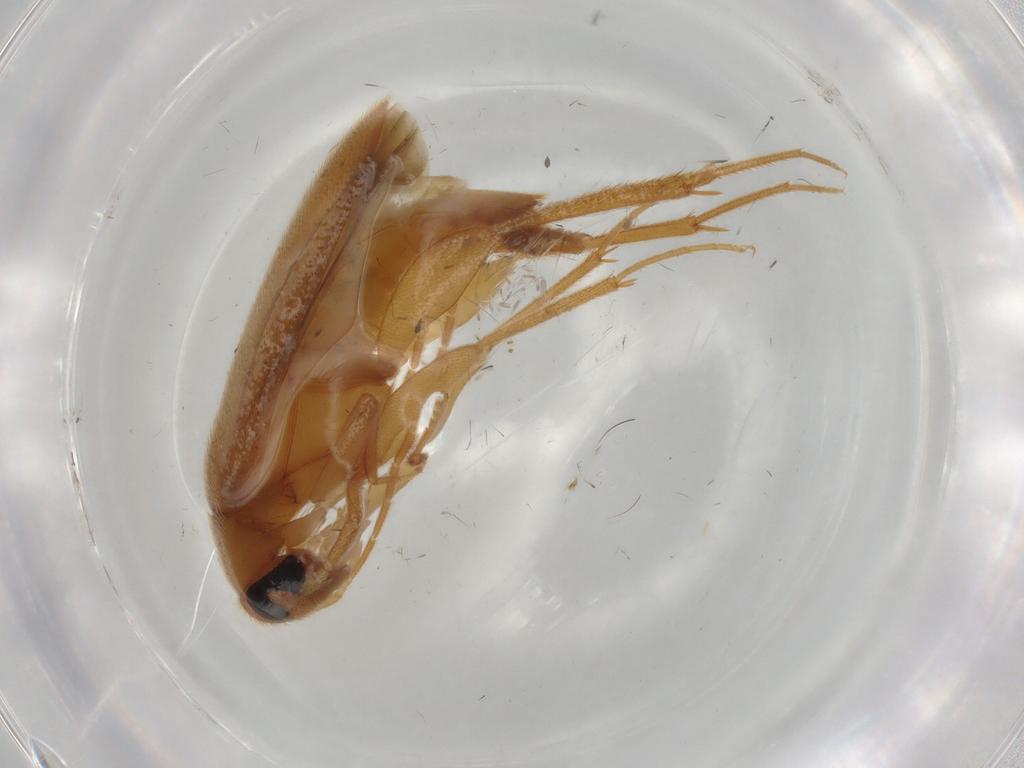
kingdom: Animalia
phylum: Arthropoda
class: Insecta
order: Coleoptera
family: Scraptiidae
